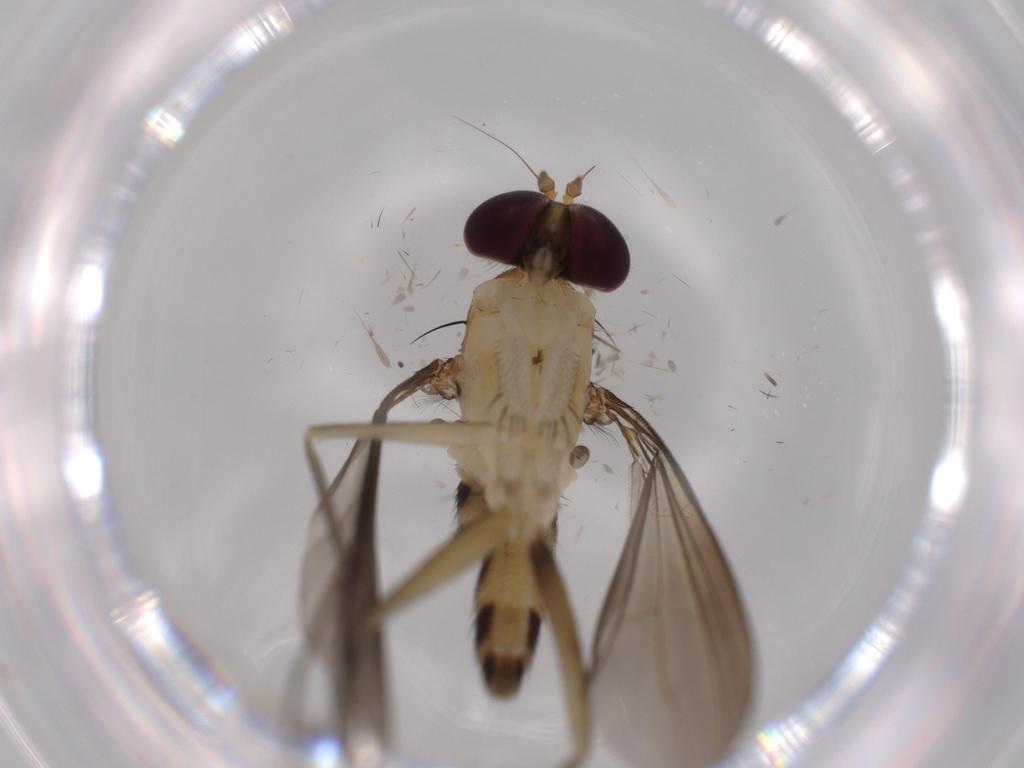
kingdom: Animalia
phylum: Arthropoda
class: Insecta
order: Diptera
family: Dolichopodidae
